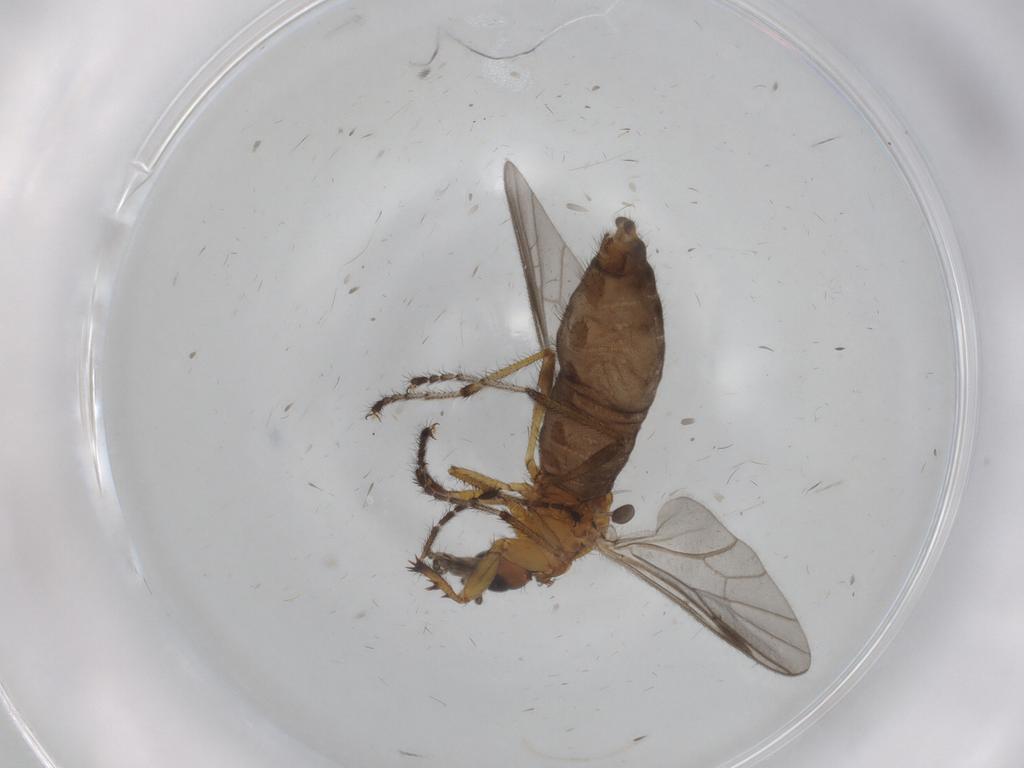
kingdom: Animalia
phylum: Arthropoda
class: Insecta
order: Diptera
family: Bibionidae
